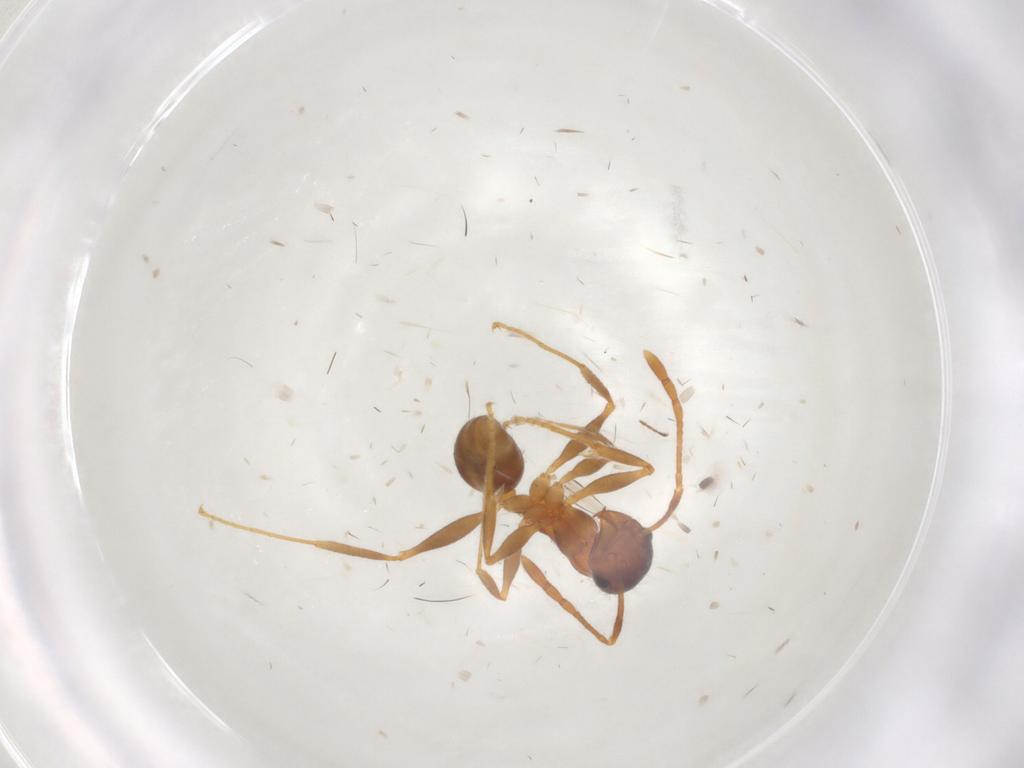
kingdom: Animalia
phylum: Arthropoda
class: Insecta
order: Hymenoptera
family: Formicidae
